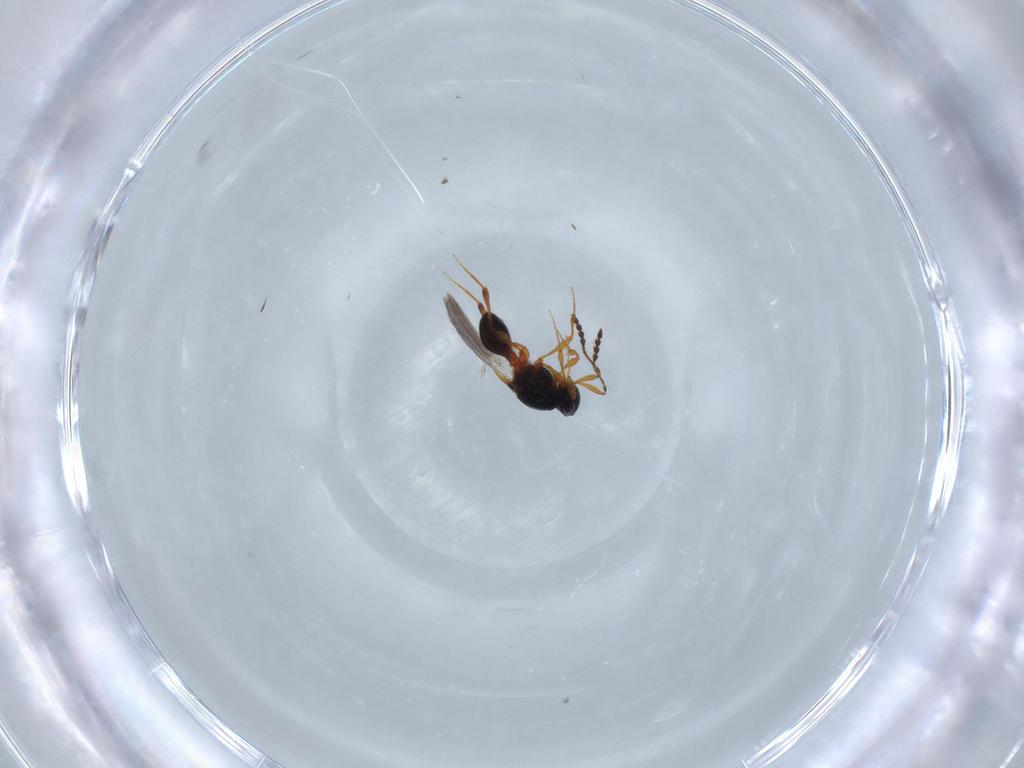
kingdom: Animalia
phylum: Arthropoda
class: Insecta
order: Hymenoptera
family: Platygastridae
